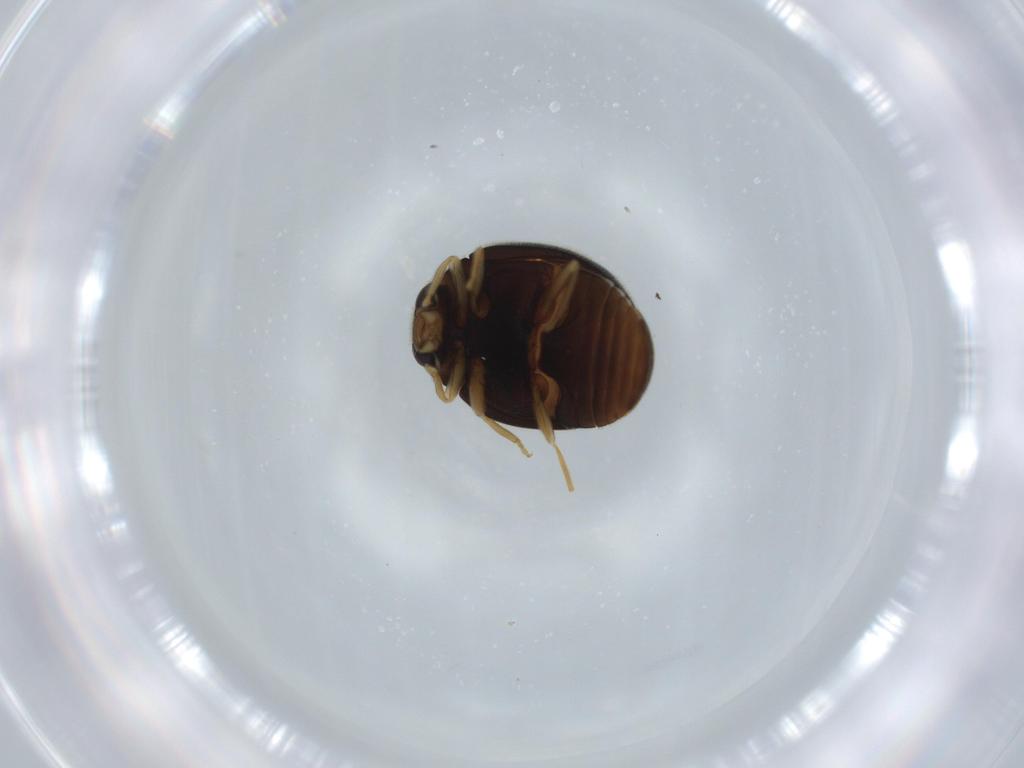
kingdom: Animalia
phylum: Arthropoda
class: Insecta
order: Coleoptera
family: Coccinellidae
